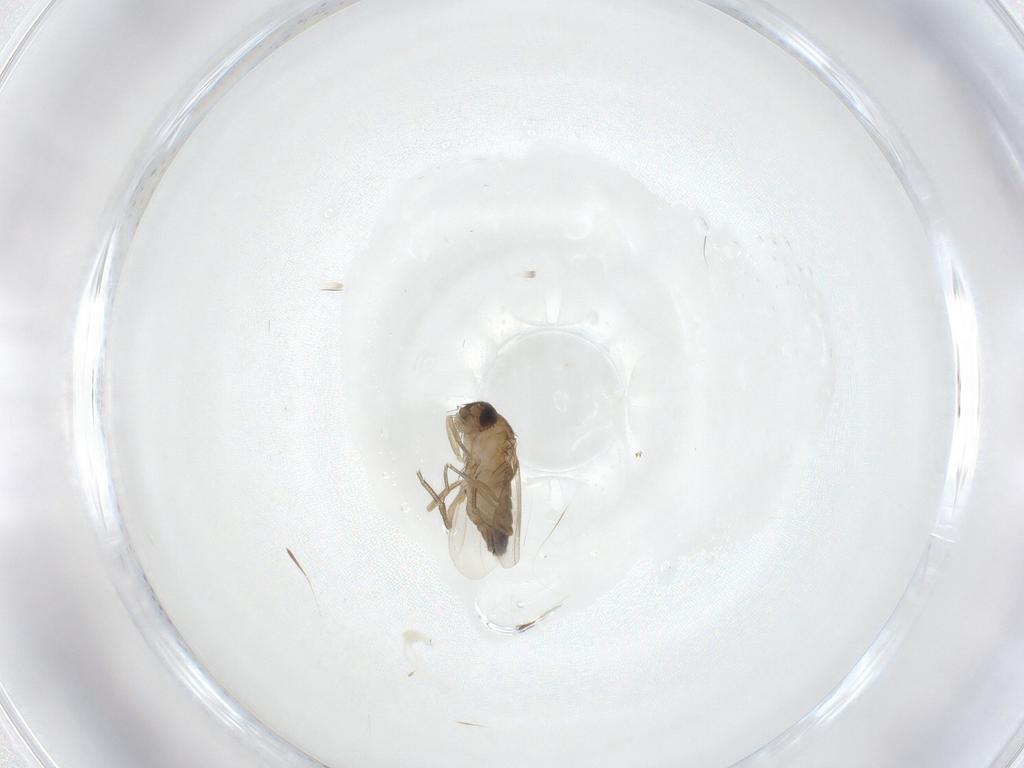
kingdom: Animalia
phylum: Arthropoda
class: Insecta
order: Diptera
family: Phoridae
